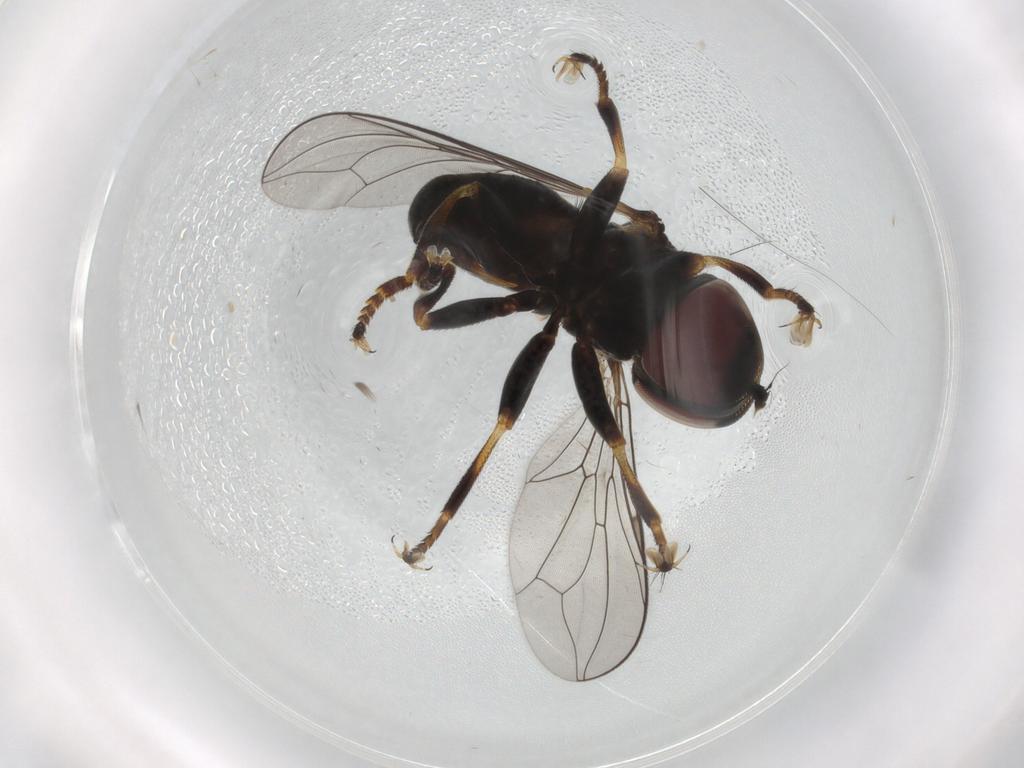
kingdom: Animalia
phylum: Arthropoda
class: Insecta
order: Diptera
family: Pipunculidae
